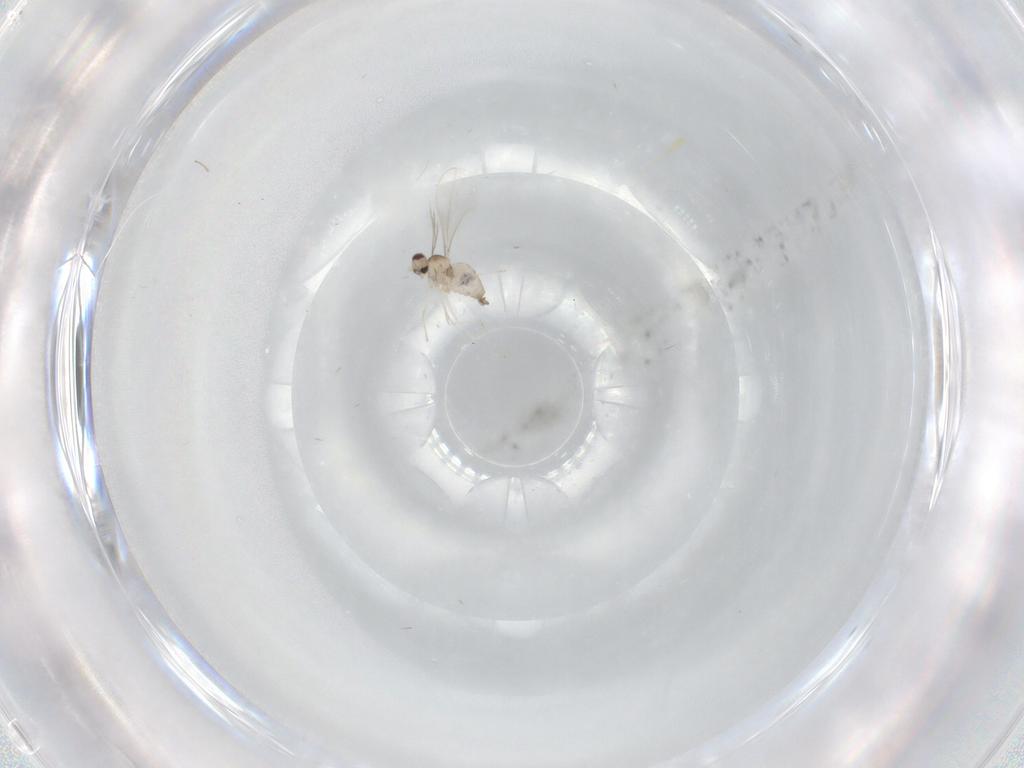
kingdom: Animalia
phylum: Arthropoda
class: Insecta
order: Diptera
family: Cecidomyiidae
